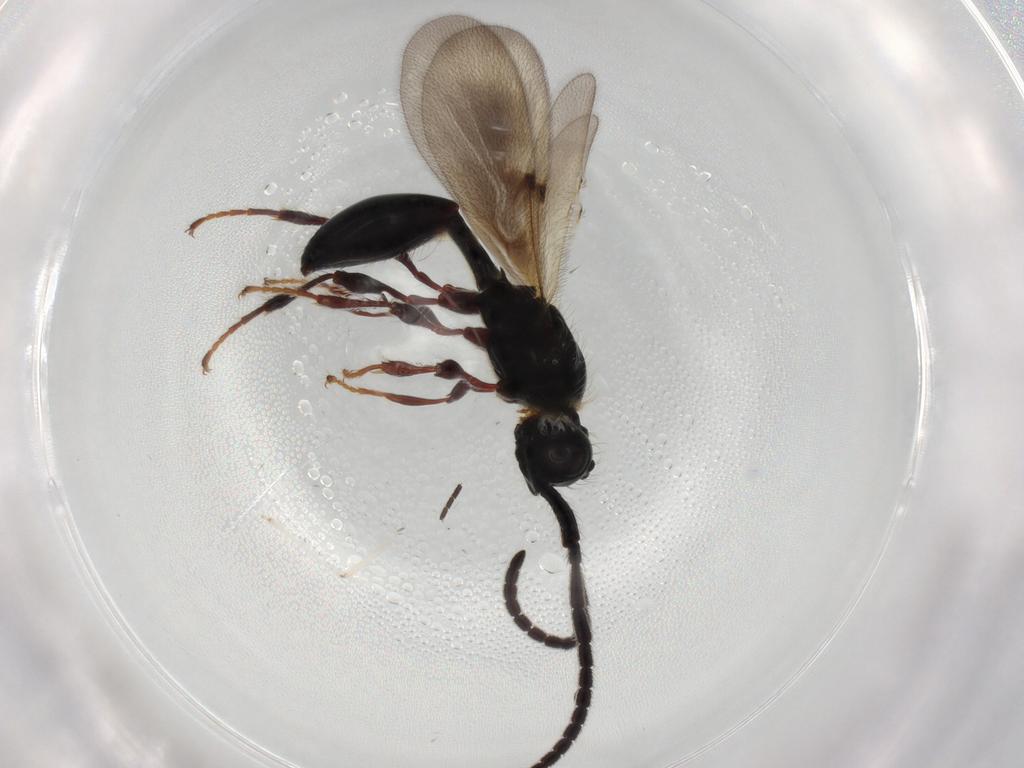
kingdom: Animalia
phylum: Arthropoda
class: Insecta
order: Hymenoptera
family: Diapriidae
